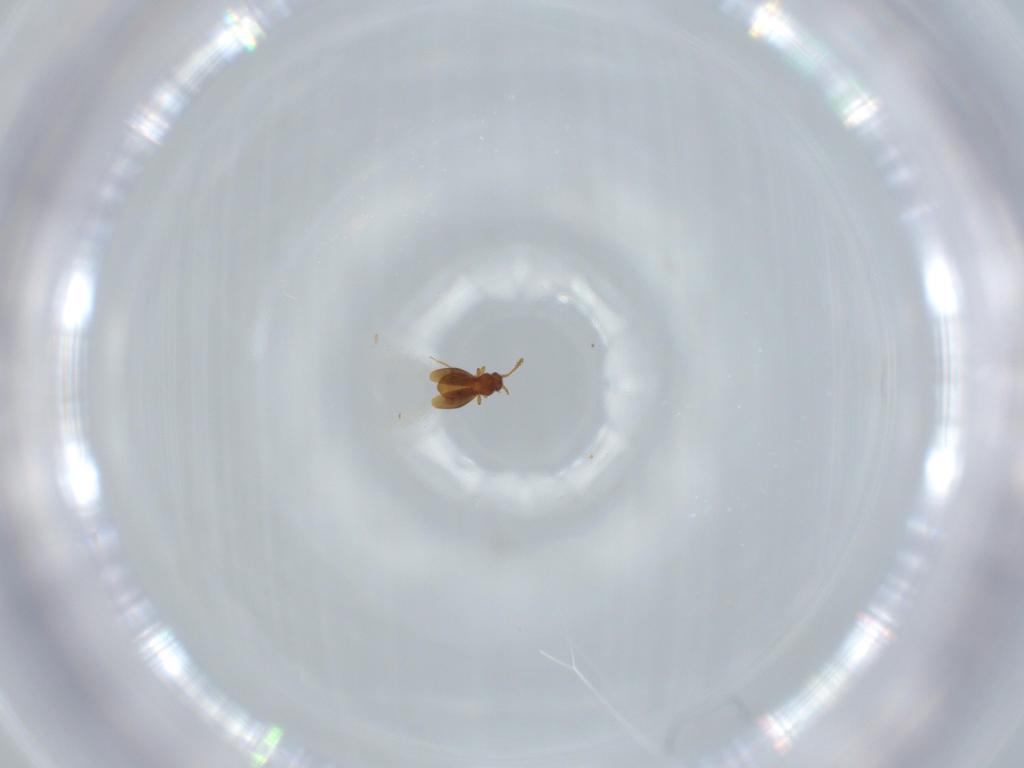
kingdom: Animalia
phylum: Arthropoda
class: Insecta
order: Coleoptera
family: Staphylinidae
